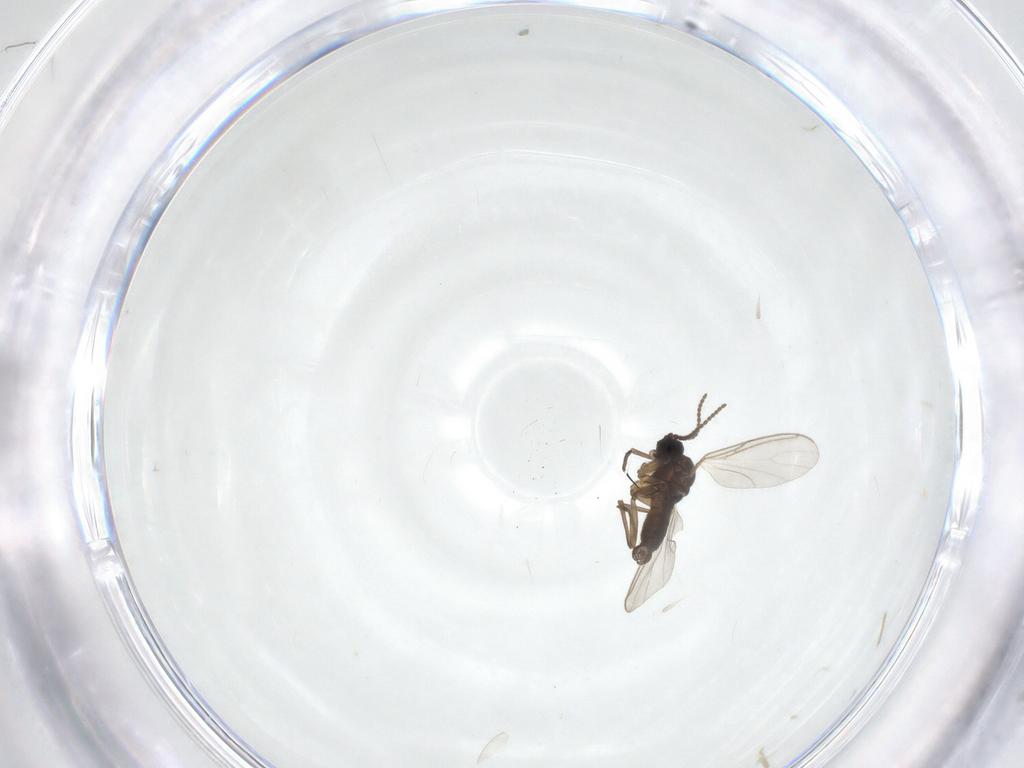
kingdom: Animalia
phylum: Arthropoda
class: Insecta
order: Diptera
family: Heleomyzidae
